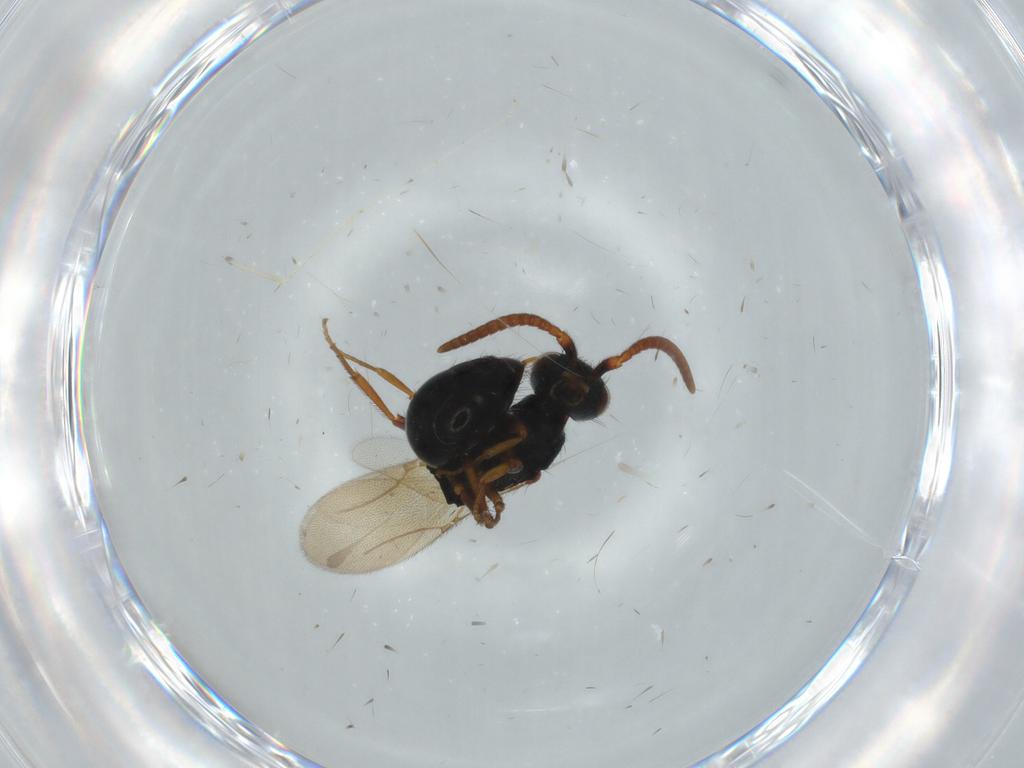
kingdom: Animalia
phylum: Arthropoda
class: Insecta
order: Hymenoptera
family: Bethylidae
